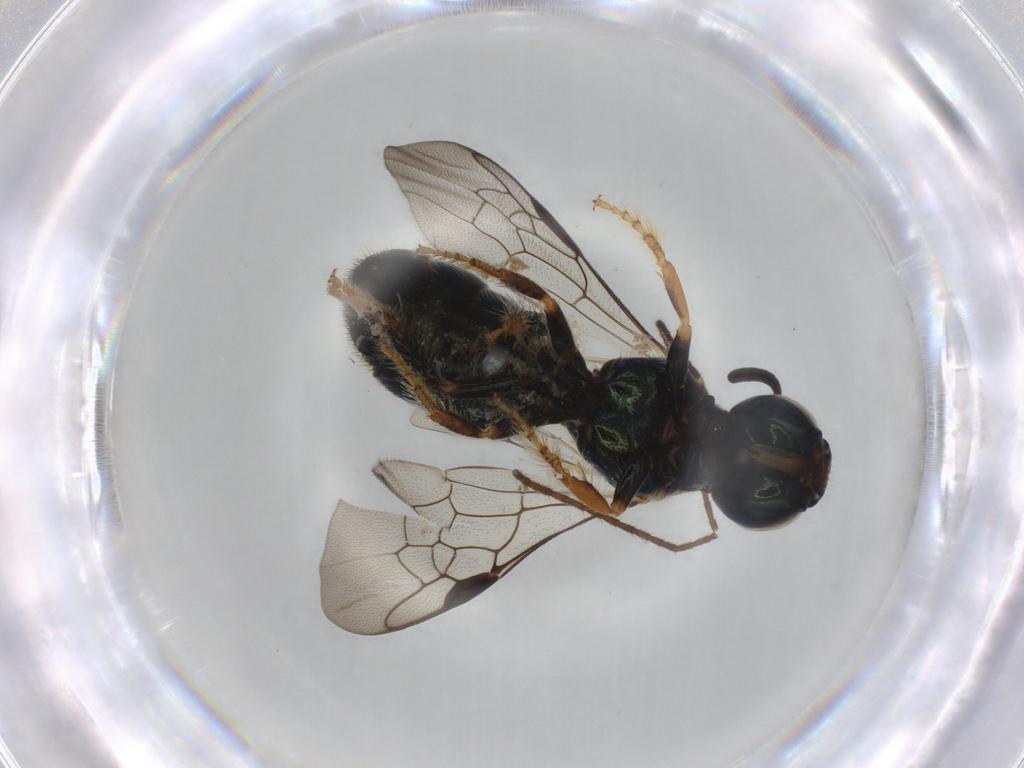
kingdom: Animalia
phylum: Arthropoda
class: Insecta
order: Hymenoptera
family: Apidae
